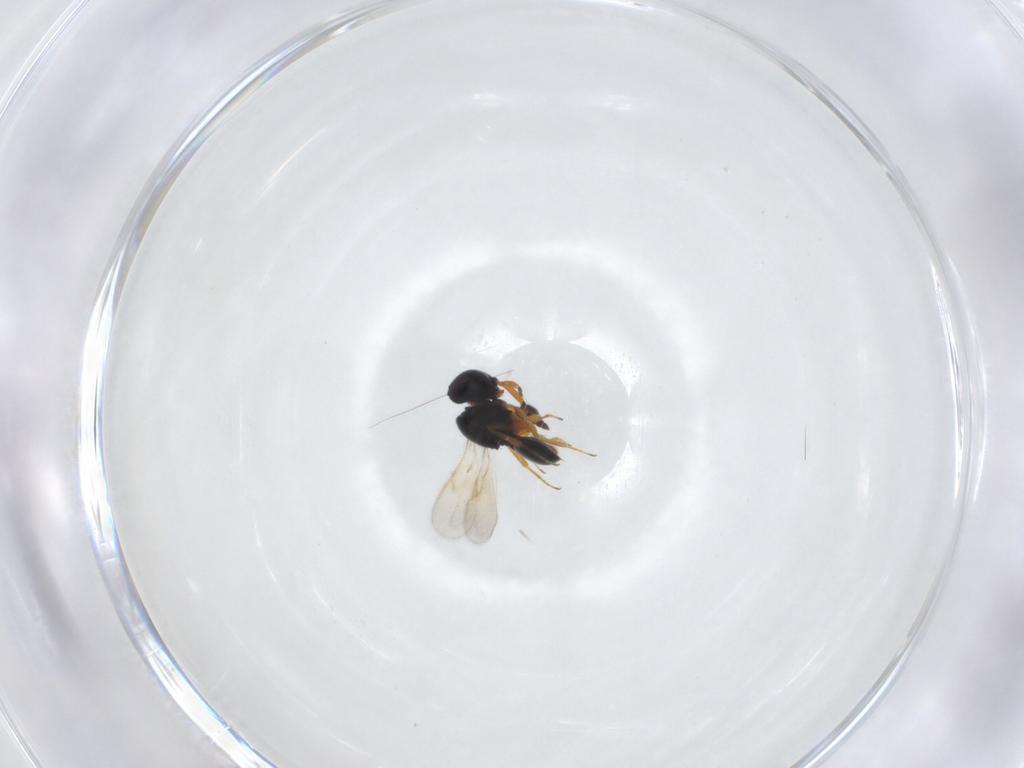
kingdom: Animalia
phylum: Arthropoda
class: Insecta
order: Hymenoptera
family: Scelionidae
